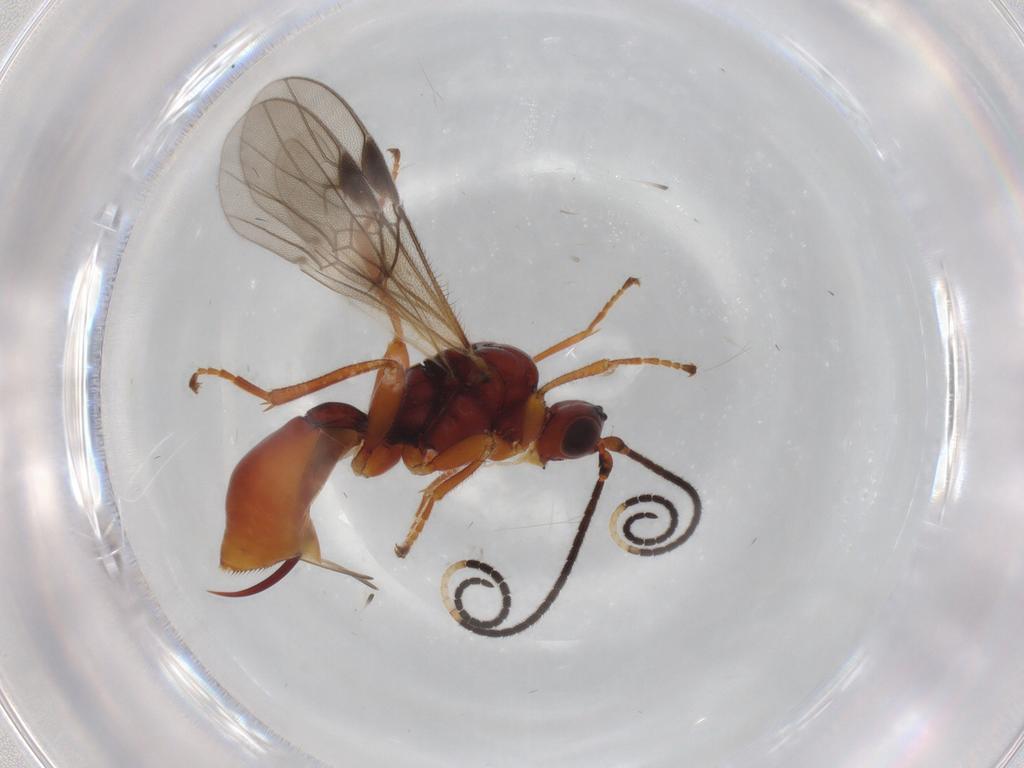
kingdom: Animalia
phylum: Arthropoda
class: Insecta
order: Hymenoptera
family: Braconidae
